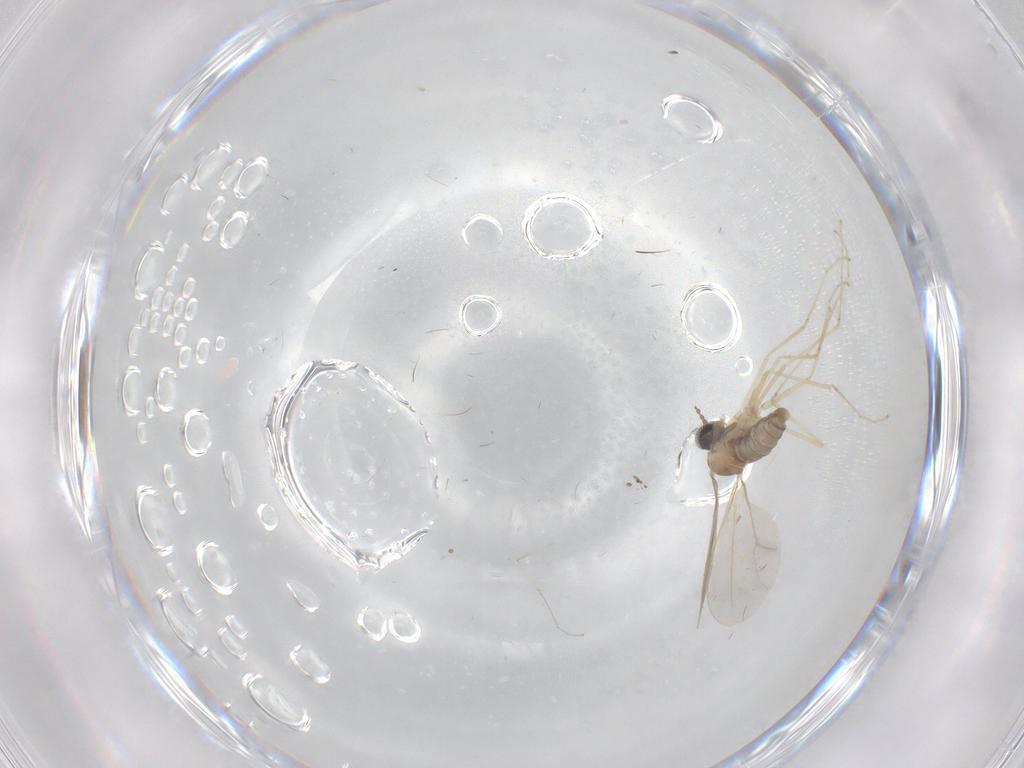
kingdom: Animalia
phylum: Arthropoda
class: Insecta
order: Diptera
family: Cecidomyiidae
